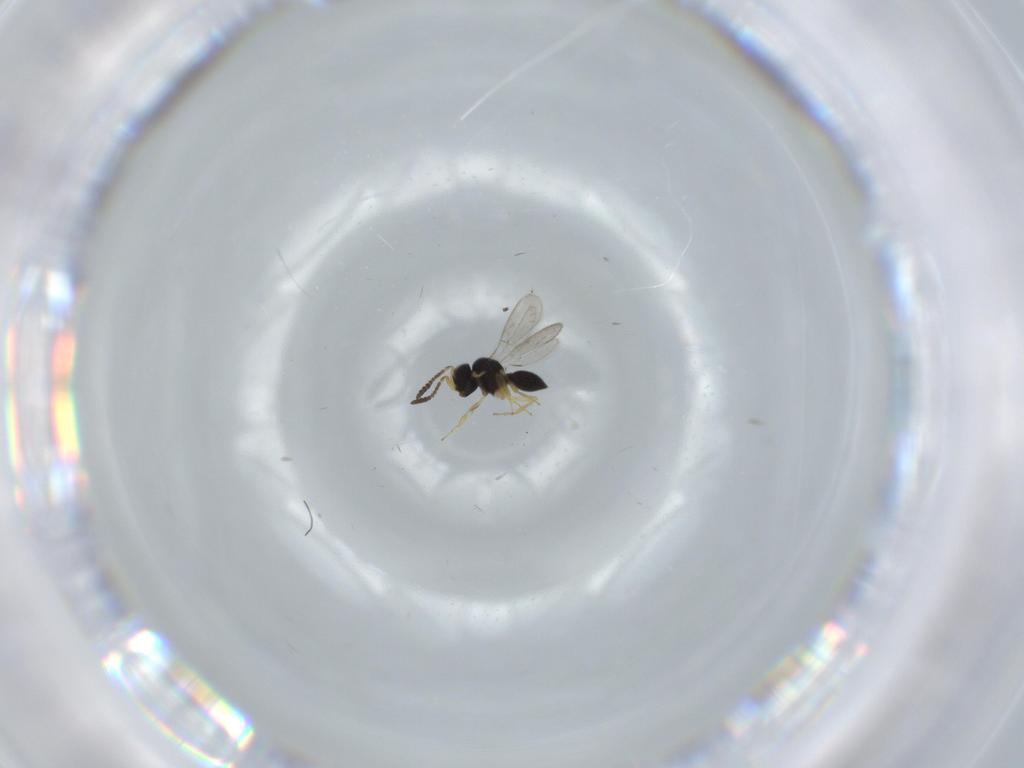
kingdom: Animalia
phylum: Arthropoda
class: Insecta
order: Hymenoptera
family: Scelionidae
